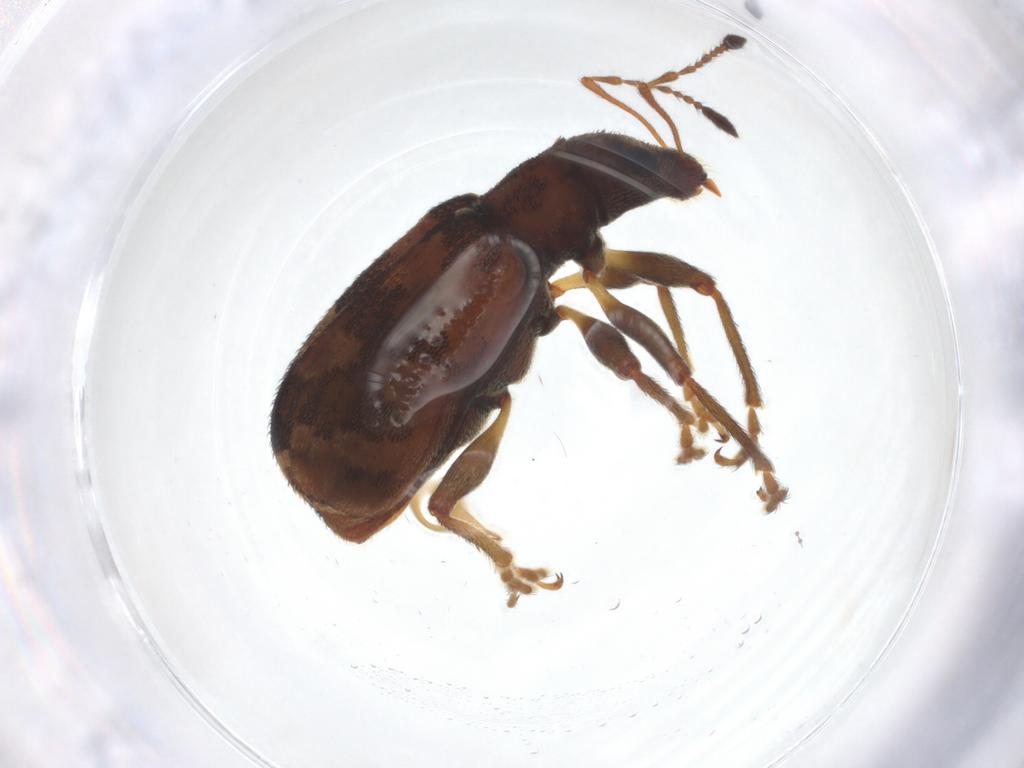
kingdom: Animalia
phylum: Arthropoda
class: Insecta
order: Coleoptera
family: Curculionidae
